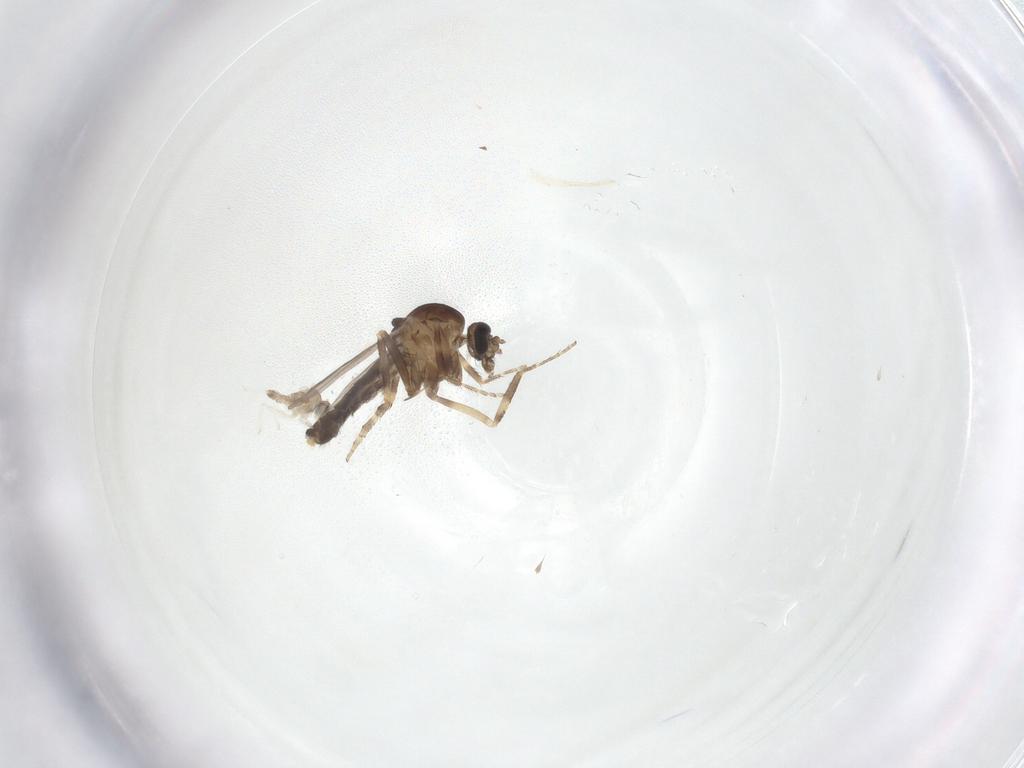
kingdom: Animalia
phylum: Arthropoda
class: Insecta
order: Diptera
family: Ceratopogonidae
